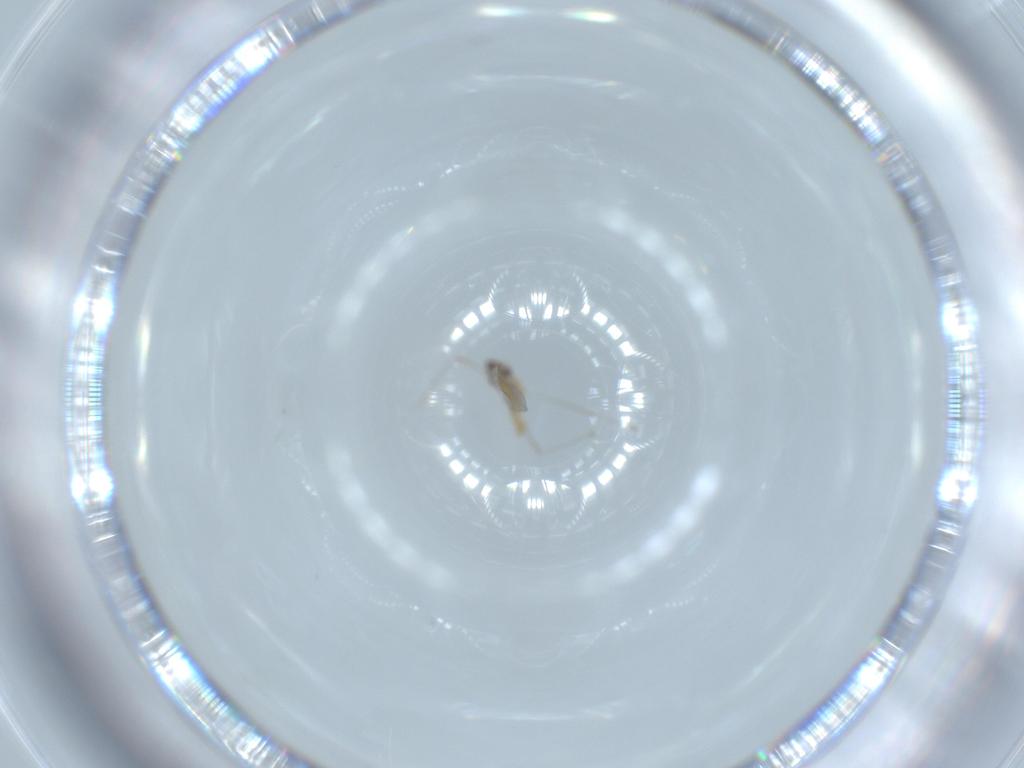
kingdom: Animalia
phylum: Arthropoda
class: Insecta
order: Diptera
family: Cecidomyiidae
